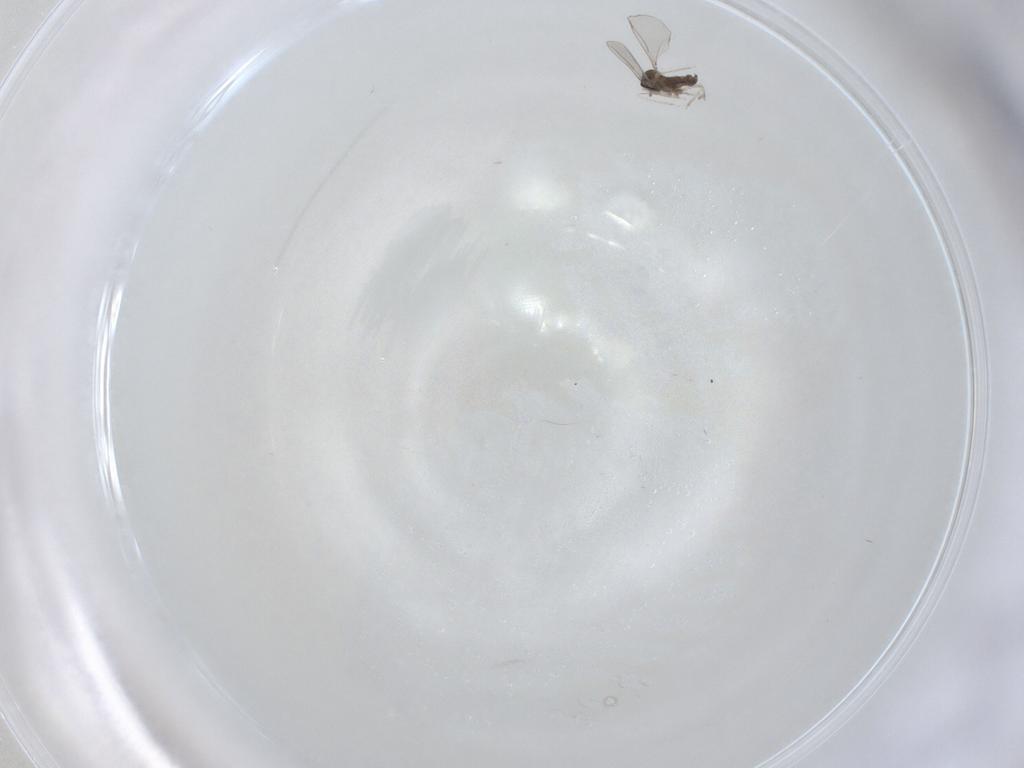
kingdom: Animalia
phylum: Arthropoda
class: Insecta
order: Diptera
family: Cecidomyiidae
